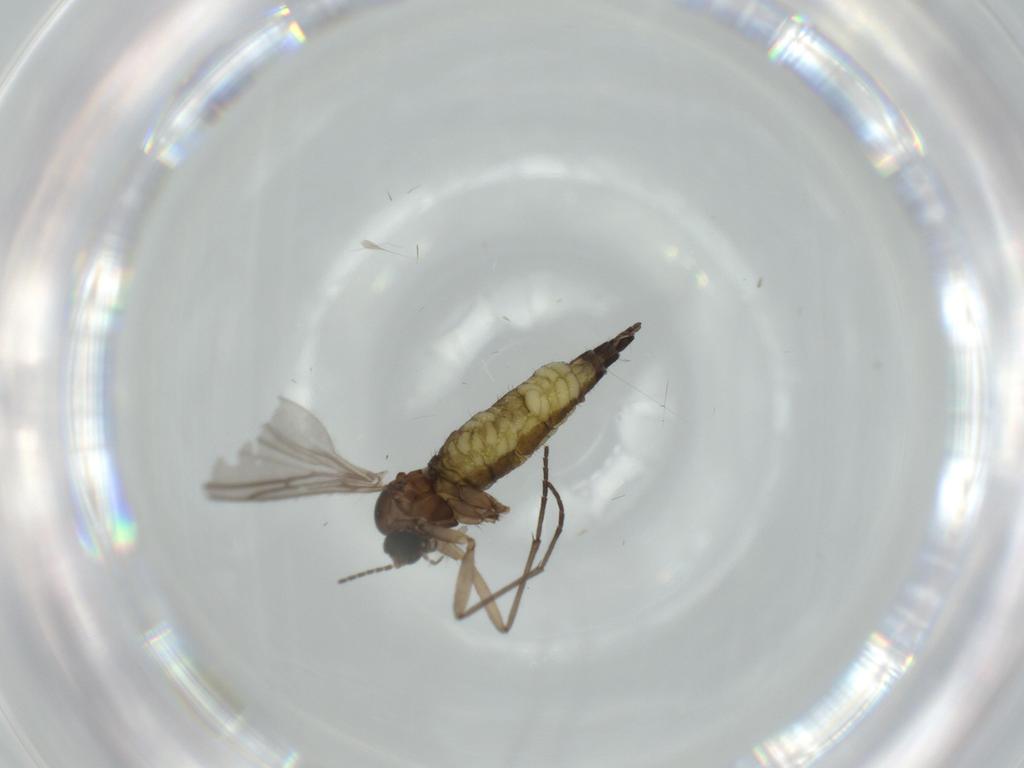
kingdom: Animalia
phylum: Arthropoda
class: Insecta
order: Diptera
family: Sciaridae
